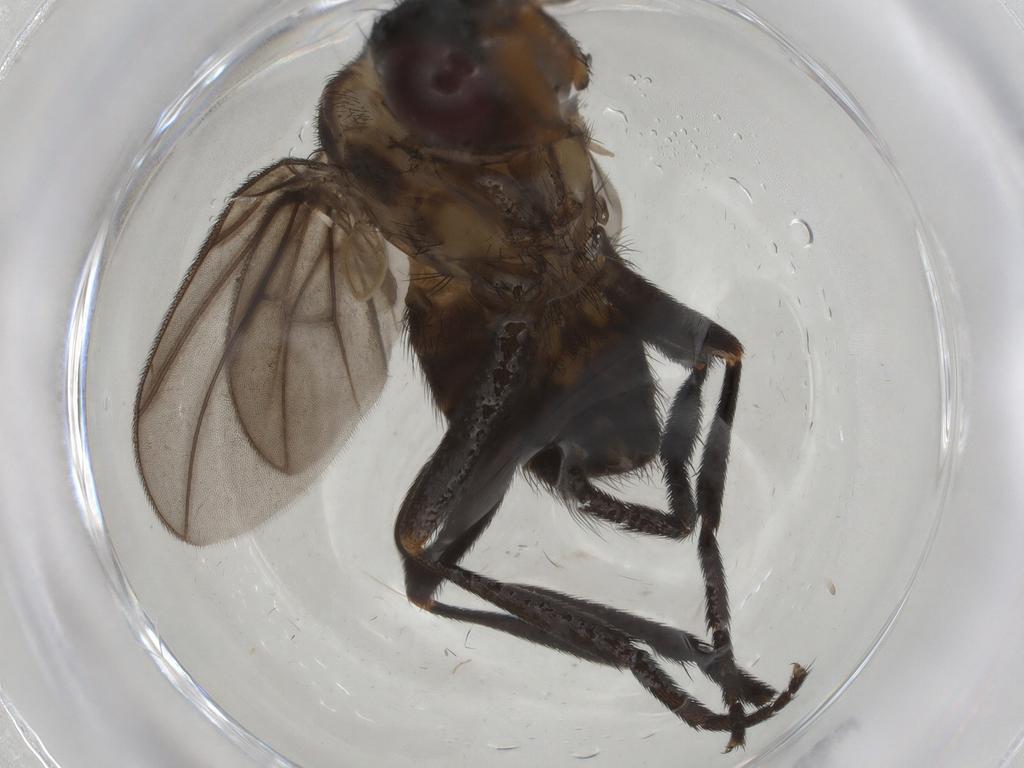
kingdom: Animalia
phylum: Arthropoda
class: Insecta
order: Diptera
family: Calliphoridae
